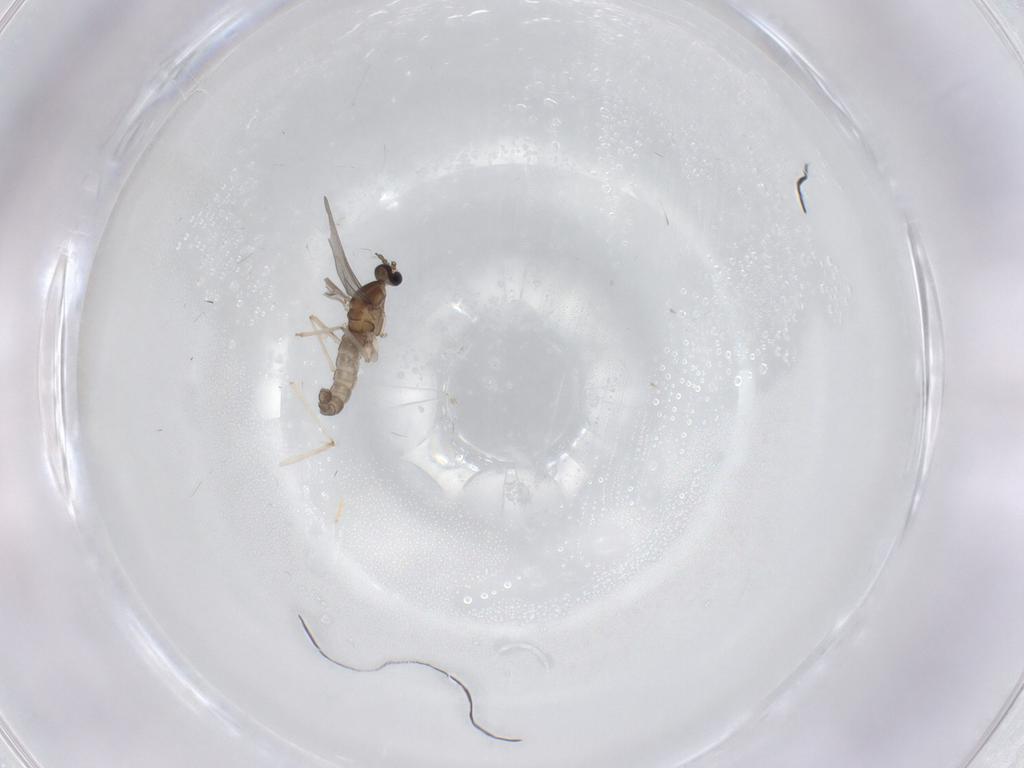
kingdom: Animalia
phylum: Arthropoda
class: Insecta
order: Diptera
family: Cecidomyiidae
